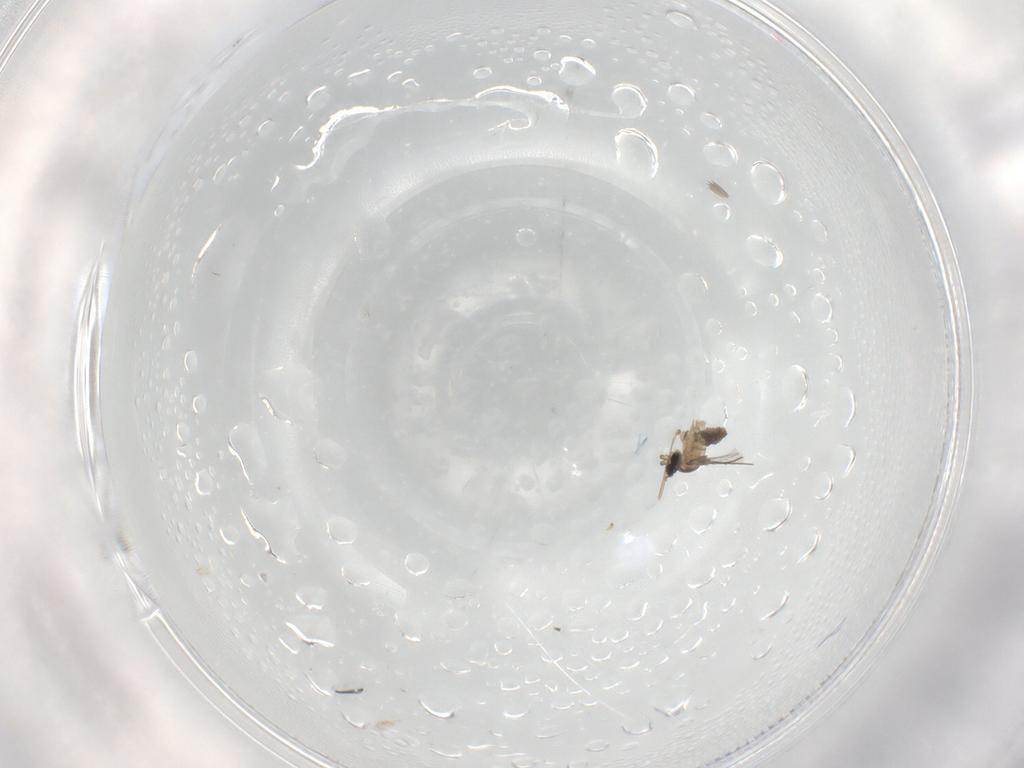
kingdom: Animalia
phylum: Arthropoda
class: Insecta
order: Diptera
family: Cecidomyiidae
